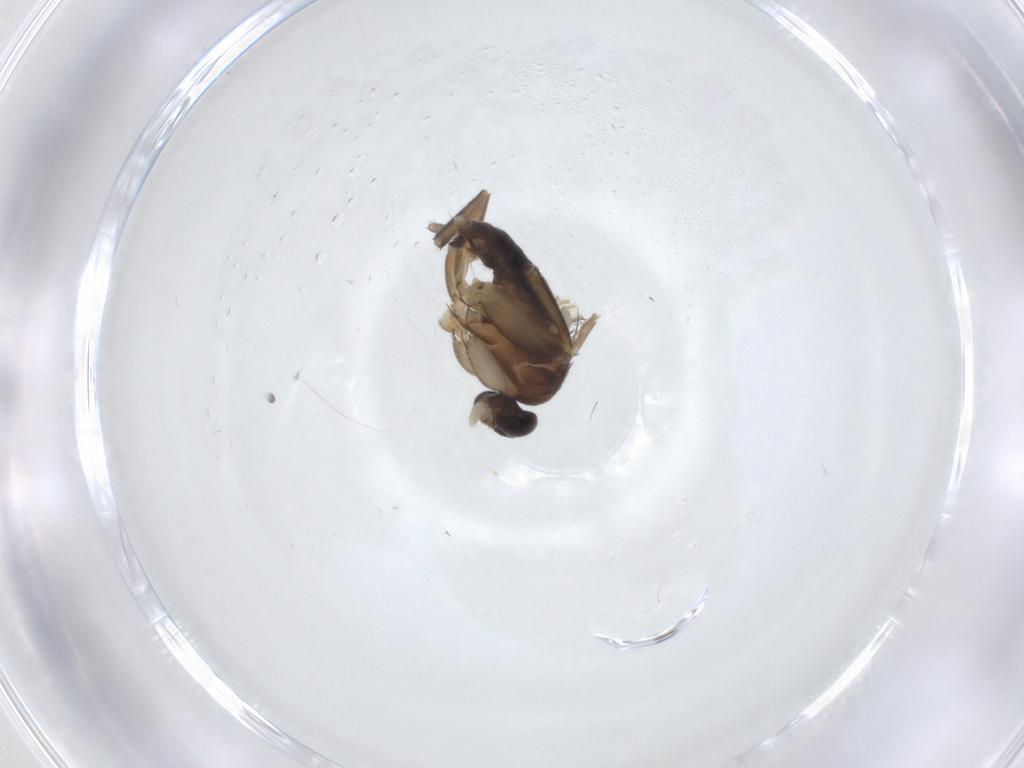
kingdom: Animalia
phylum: Arthropoda
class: Insecta
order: Diptera
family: Phoridae
